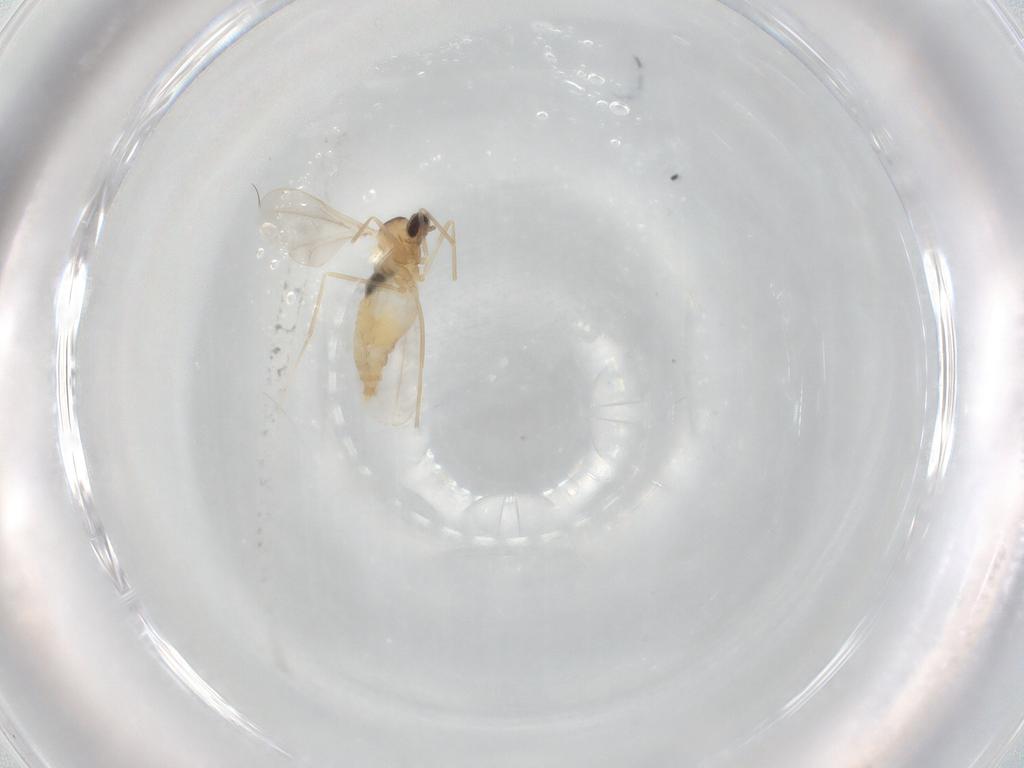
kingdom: Animalia
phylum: Arthropoda
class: Insecta
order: Diptera
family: Cecidomyiidae
